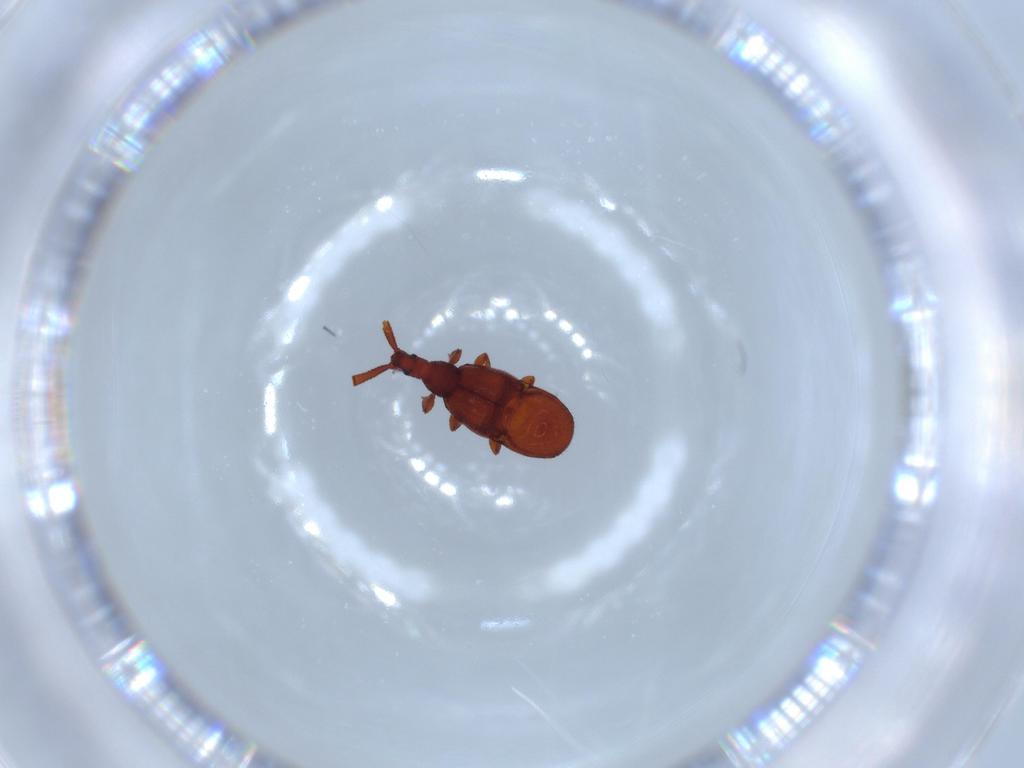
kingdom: Animalia
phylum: Arthropoda
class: Insecta
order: Coleoptera
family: Staphylinidae
